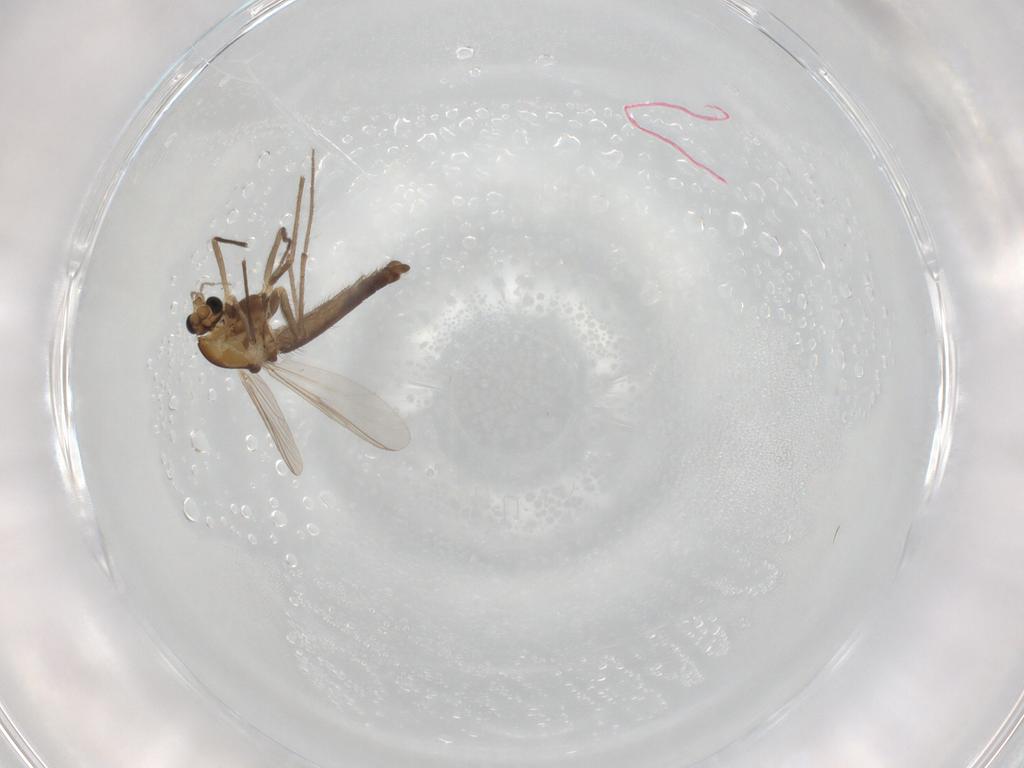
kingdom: Animalia
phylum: Arthropoda
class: Insecta
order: Diptera
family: Chironomidae
